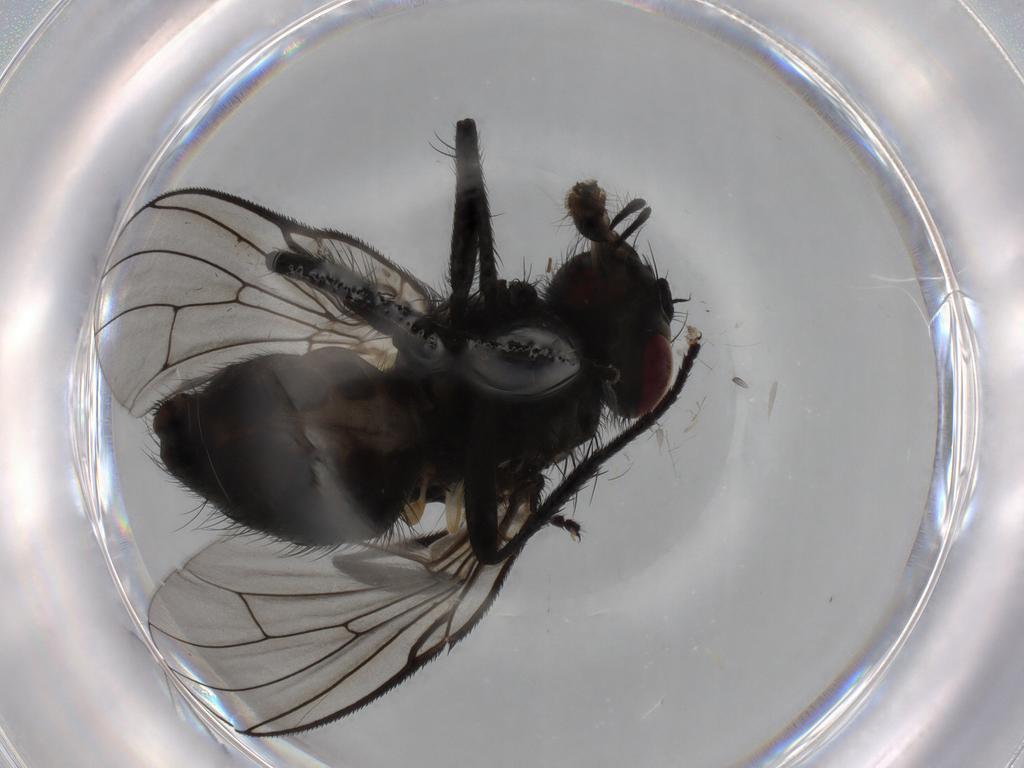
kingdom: Animalia
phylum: Arthropoda
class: Insecta
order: Diptera
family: Muscidae
